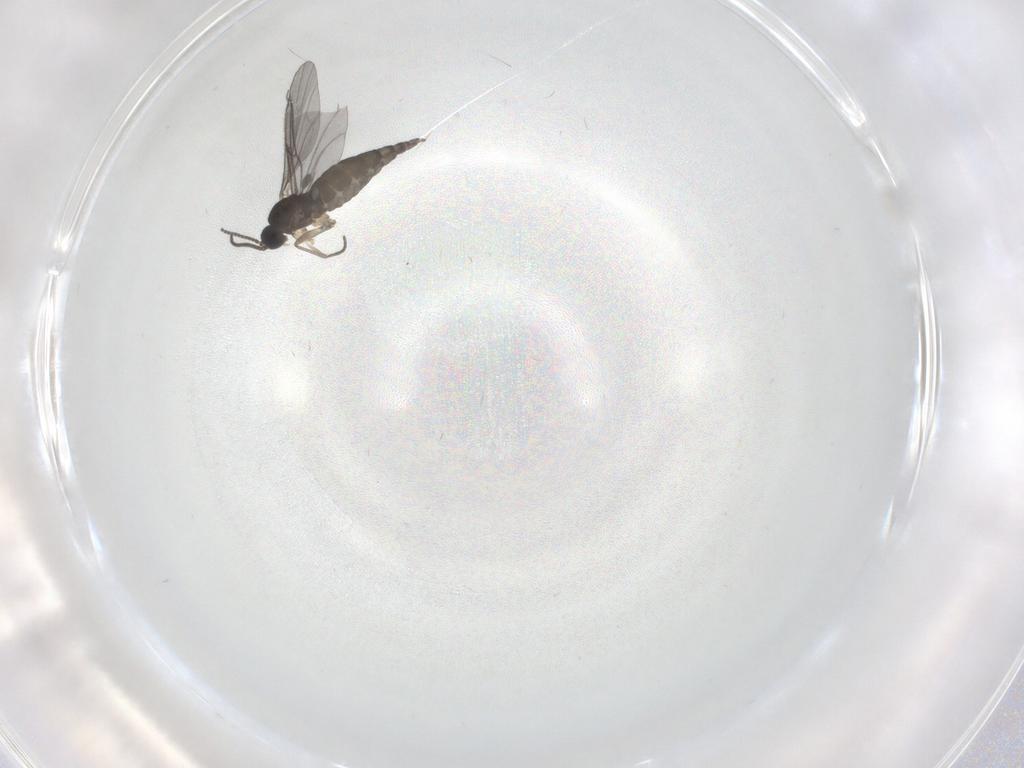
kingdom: Animalia
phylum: Arthropoda
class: Insecta
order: Diptera
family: Sciaridae
